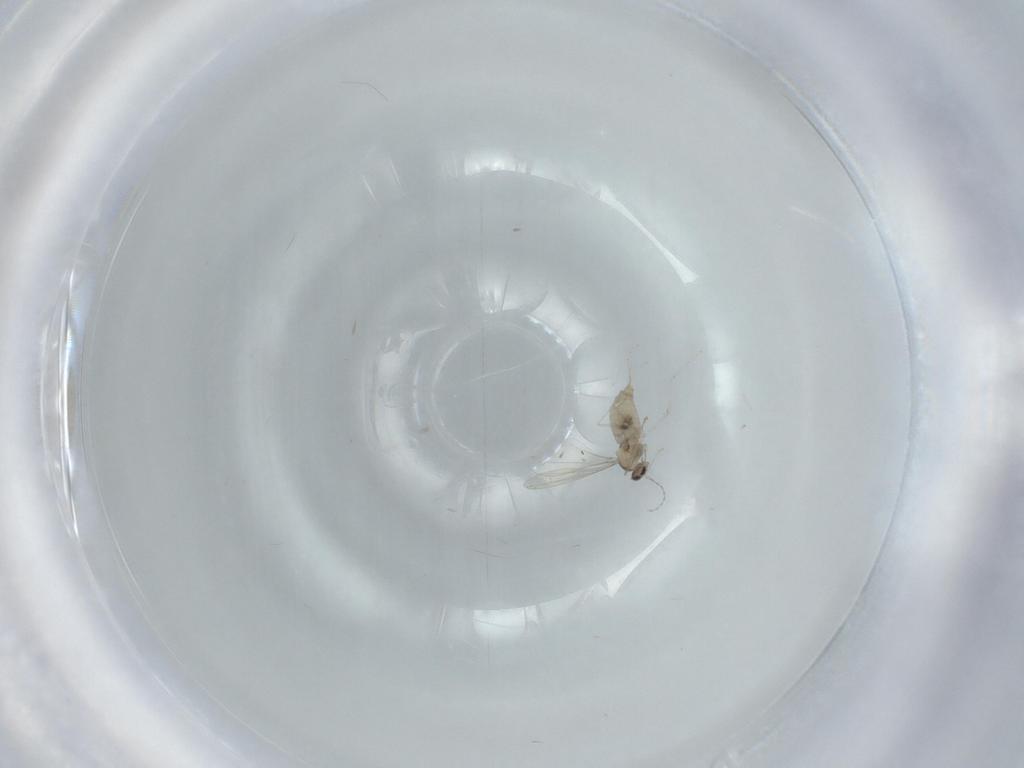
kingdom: Animalia
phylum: Arthropoda
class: Insecta
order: Diptera
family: Cecidomyiidae
